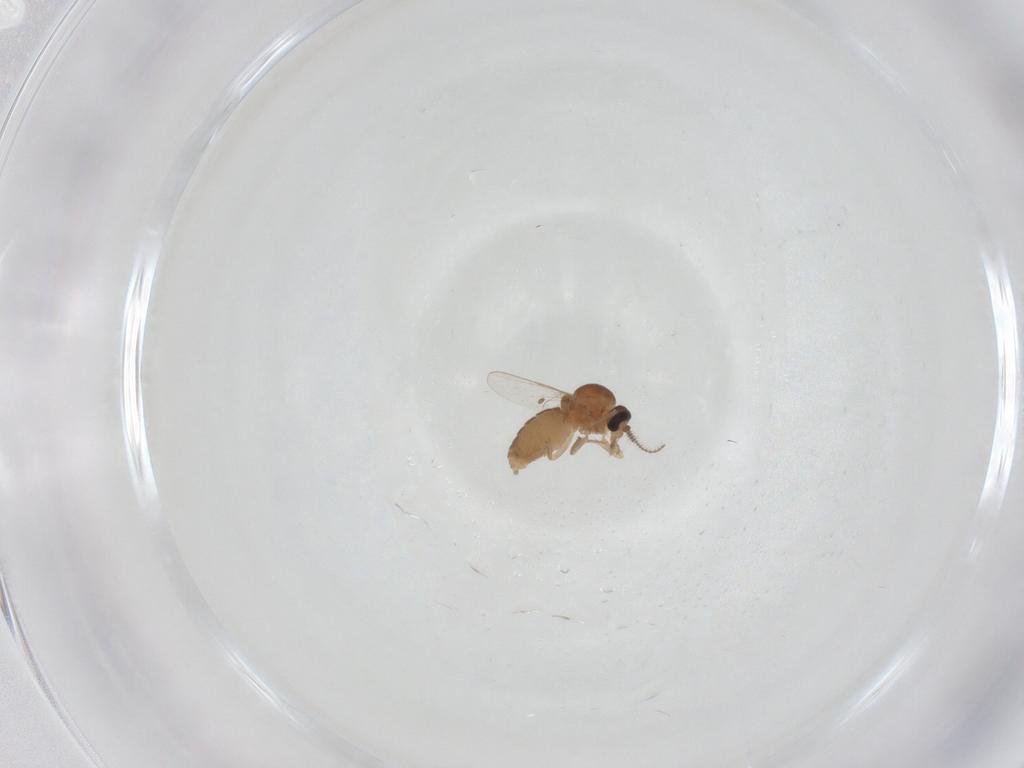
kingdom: Animalia
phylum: Arthropoda
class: Insecta
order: Diptera
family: Ceratopogonidae
